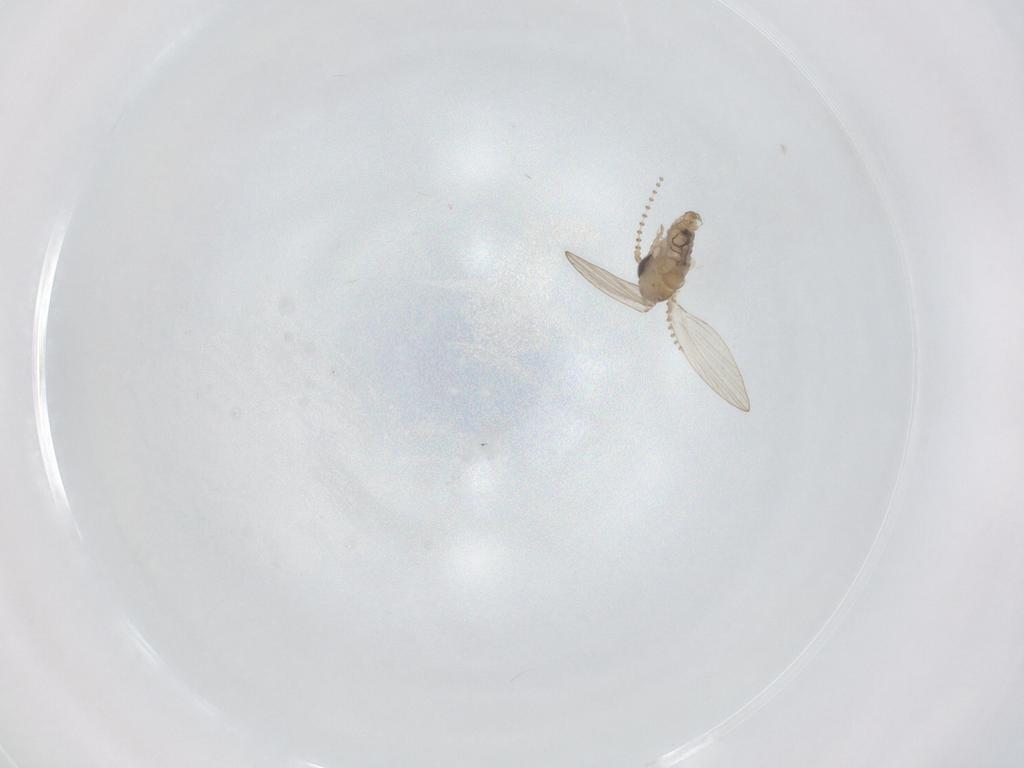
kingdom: Animalia
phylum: Arthropoda
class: Insecta
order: Diptera
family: Psychodidae
